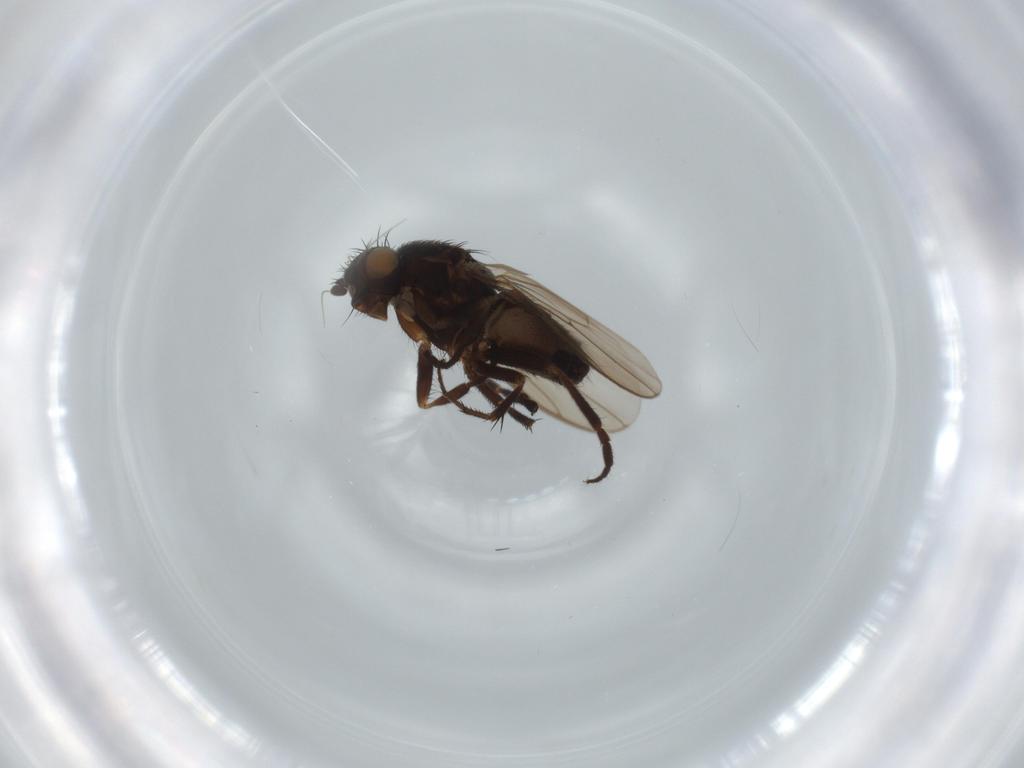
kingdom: Animalia
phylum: Arthropoda
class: Insecta
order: Diptera
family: Sphaeroceridae
